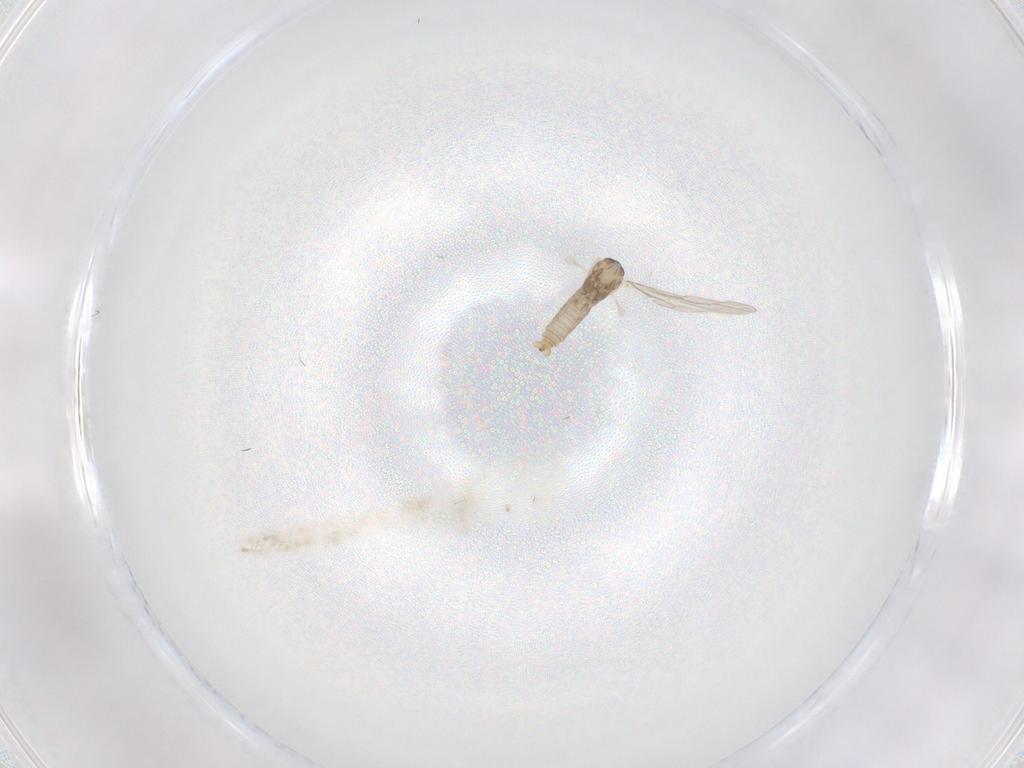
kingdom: Animalia
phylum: Arthropoda
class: Insecta
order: Diptera
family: Cecidomyiidae
